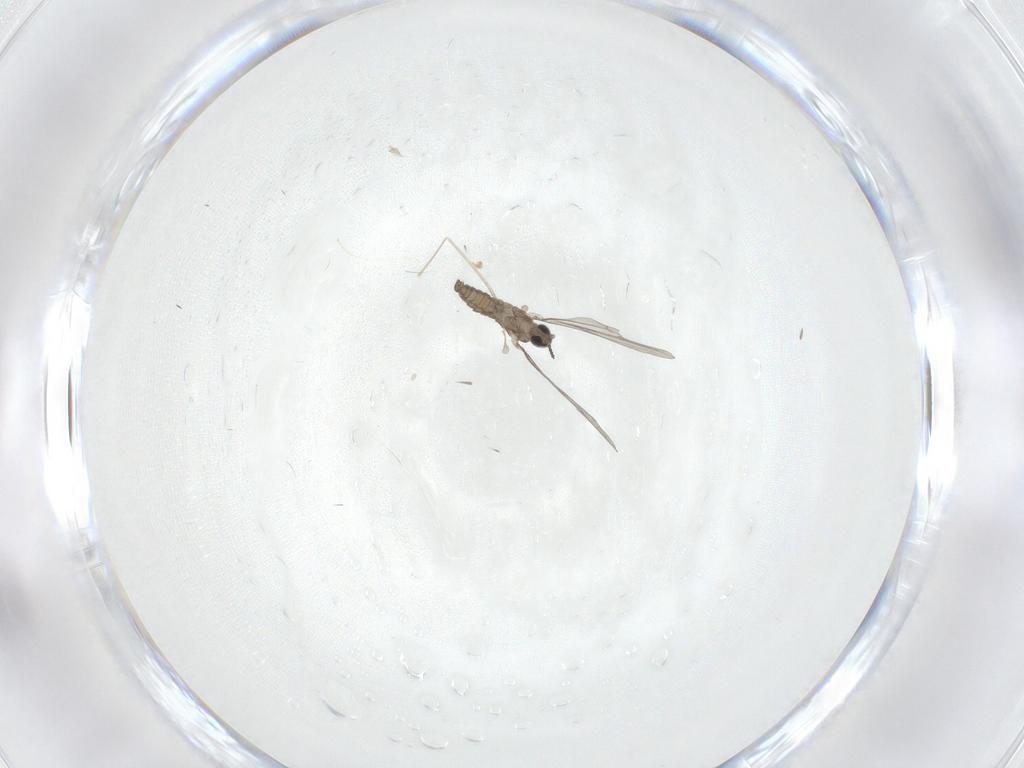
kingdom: Animalia
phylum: Arthropoda
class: Insecta
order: Diptera
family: Cecidomyiidae
